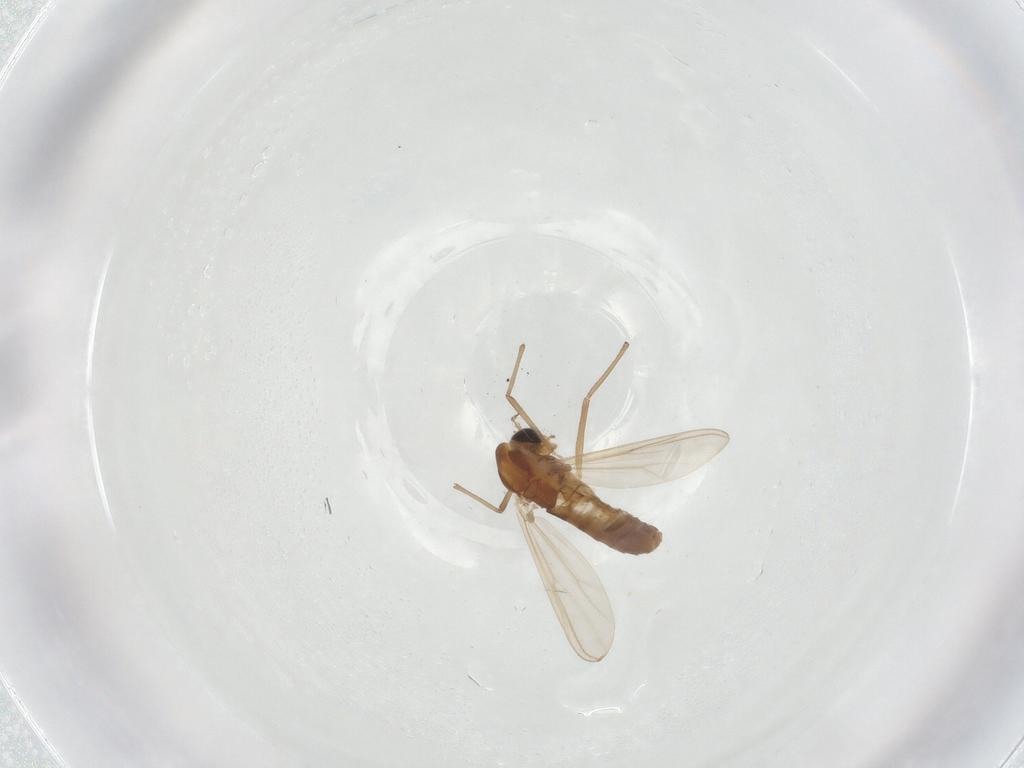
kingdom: Animalia
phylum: Arthropoda
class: Insecta
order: Diptera
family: Chironomidae
